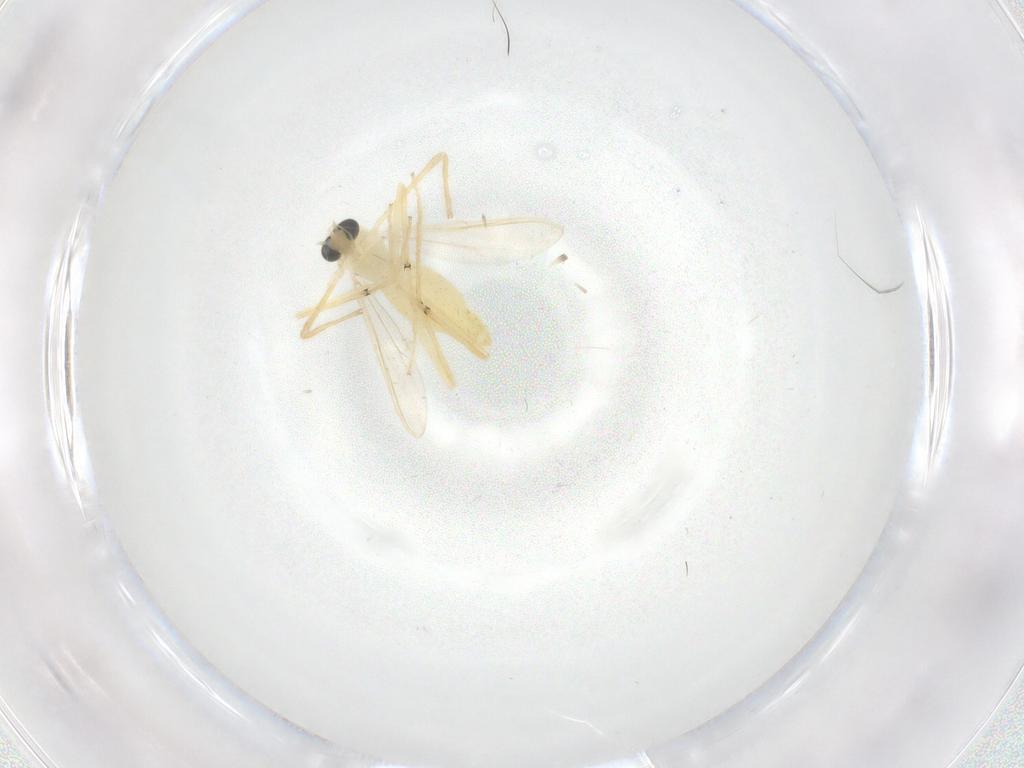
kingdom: Animalia
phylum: Arthropoda
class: Insecta
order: Diptera
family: Chironomidae
